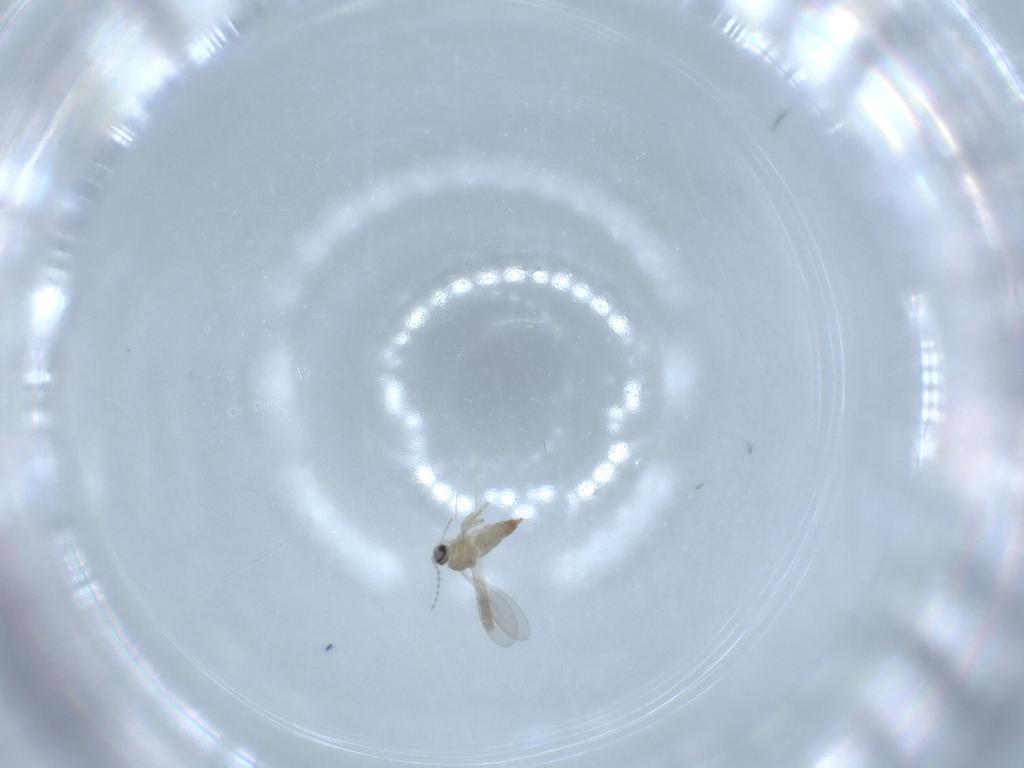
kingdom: Animalia
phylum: Arthropoda
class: Insecta
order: Diptera
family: Cecidomyiidae
